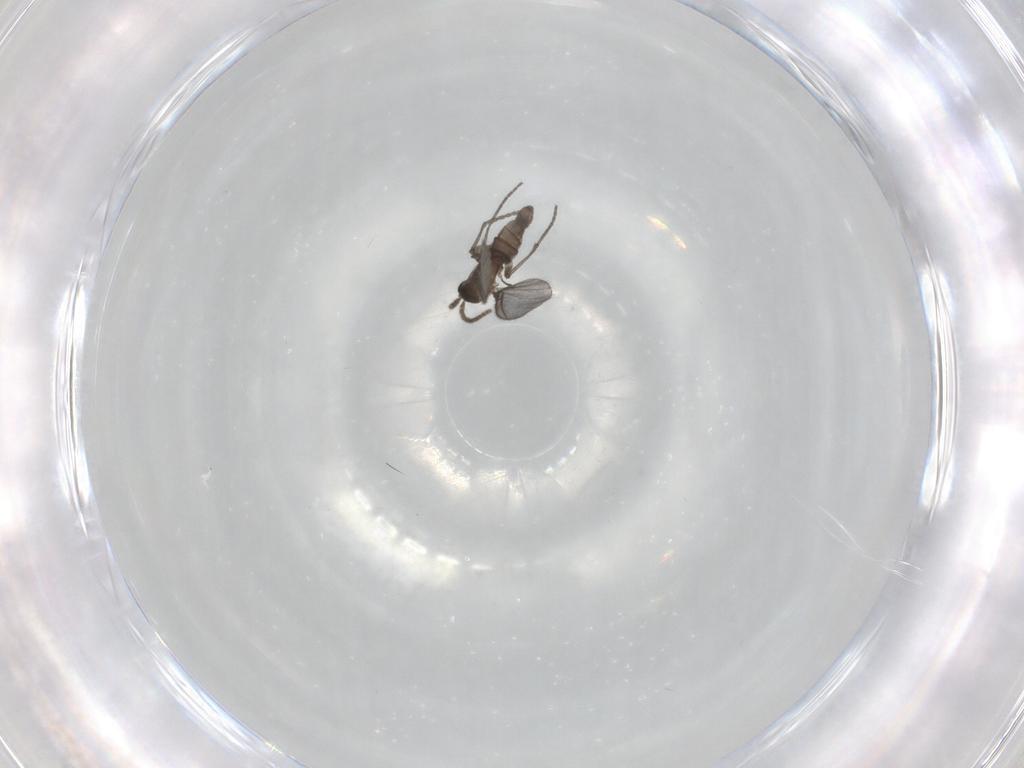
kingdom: Animalia
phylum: Arthropoda
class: Insecta
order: Diptera
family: Sciaridae
